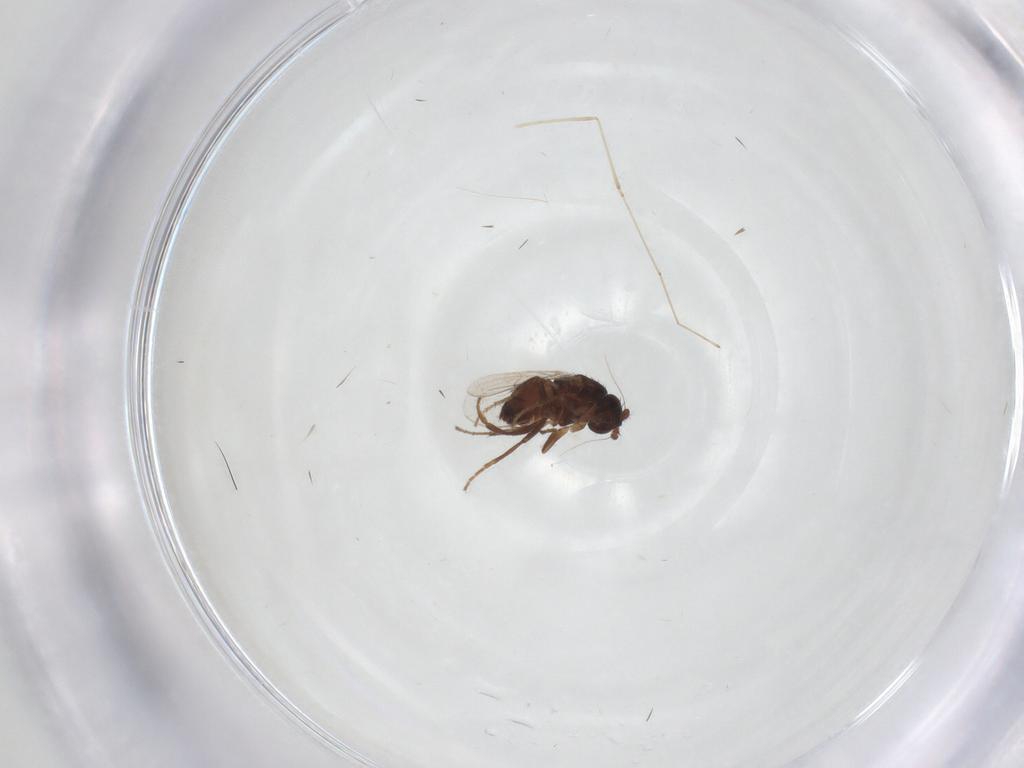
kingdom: Animalia
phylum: Arthropoda
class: Insecta
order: Diptera
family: Sphaeroceridae
